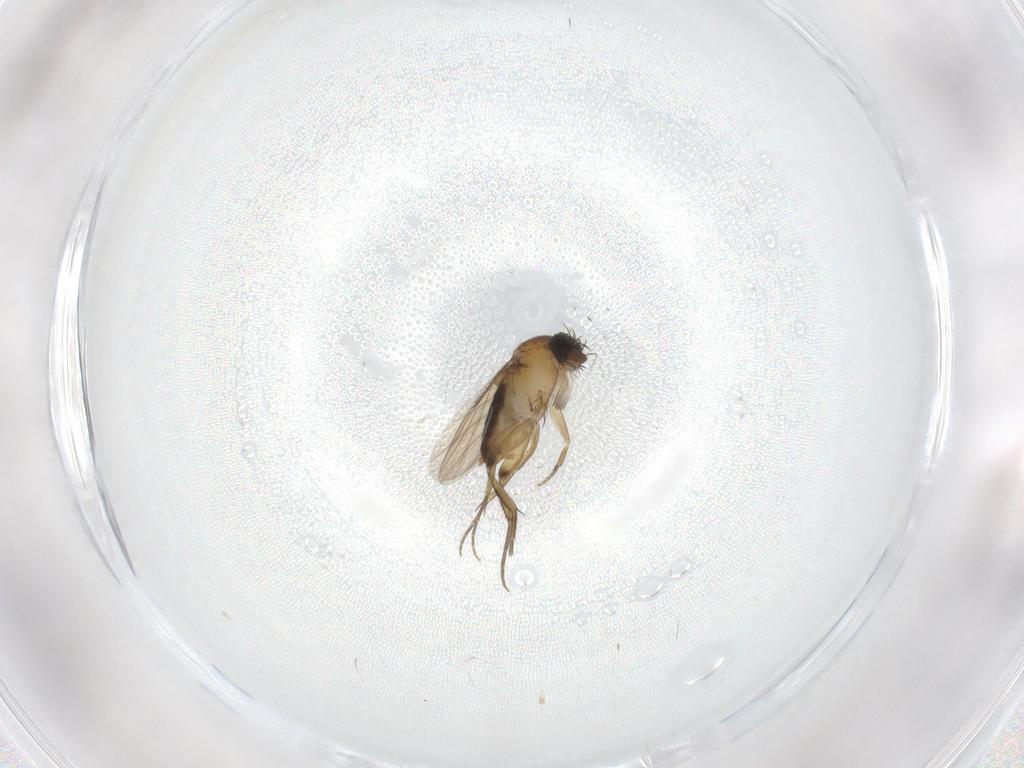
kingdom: Animalia
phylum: Arthropoda
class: Insecta
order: Diptera
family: Phoridae
